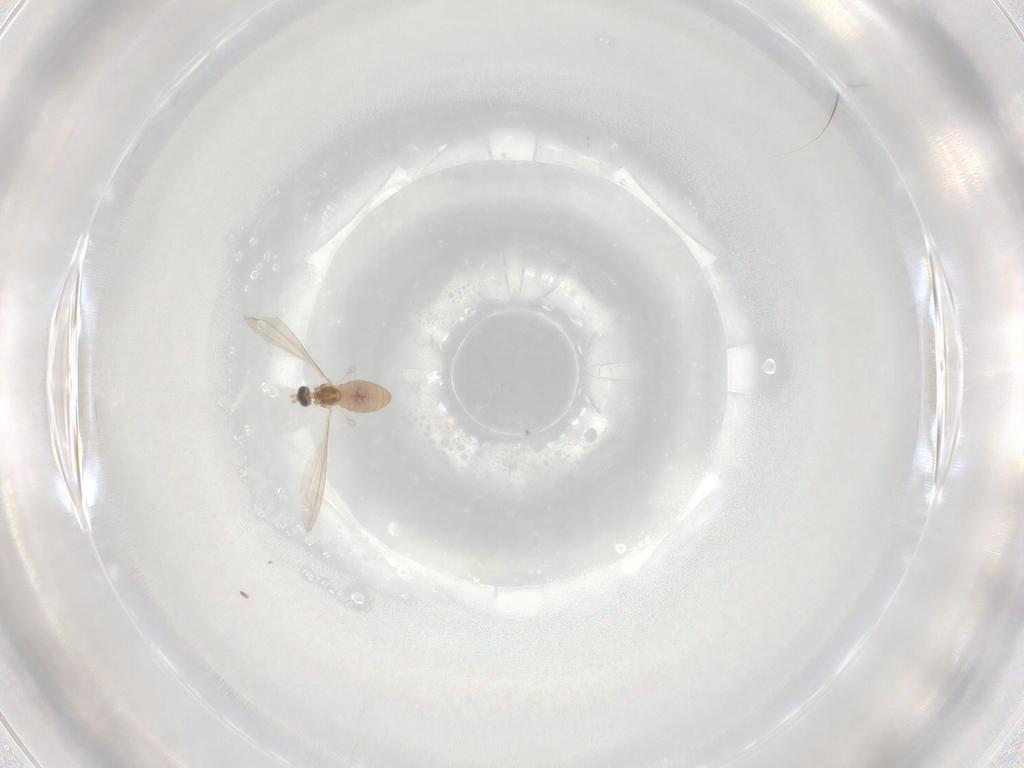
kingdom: Animalia
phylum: Arthropoda
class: Insecta
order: Diptera
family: Cecidomyiidae
